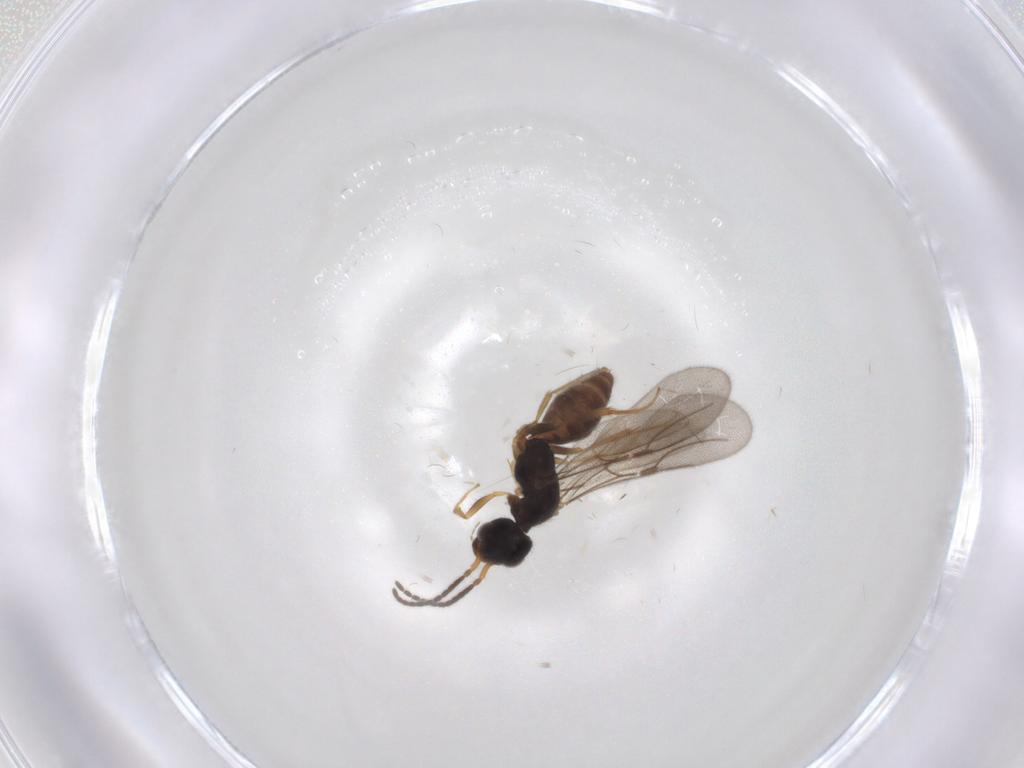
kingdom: Animalia
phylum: Arthropoda
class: Insecta
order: Hymenoptera
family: Bethylidae
